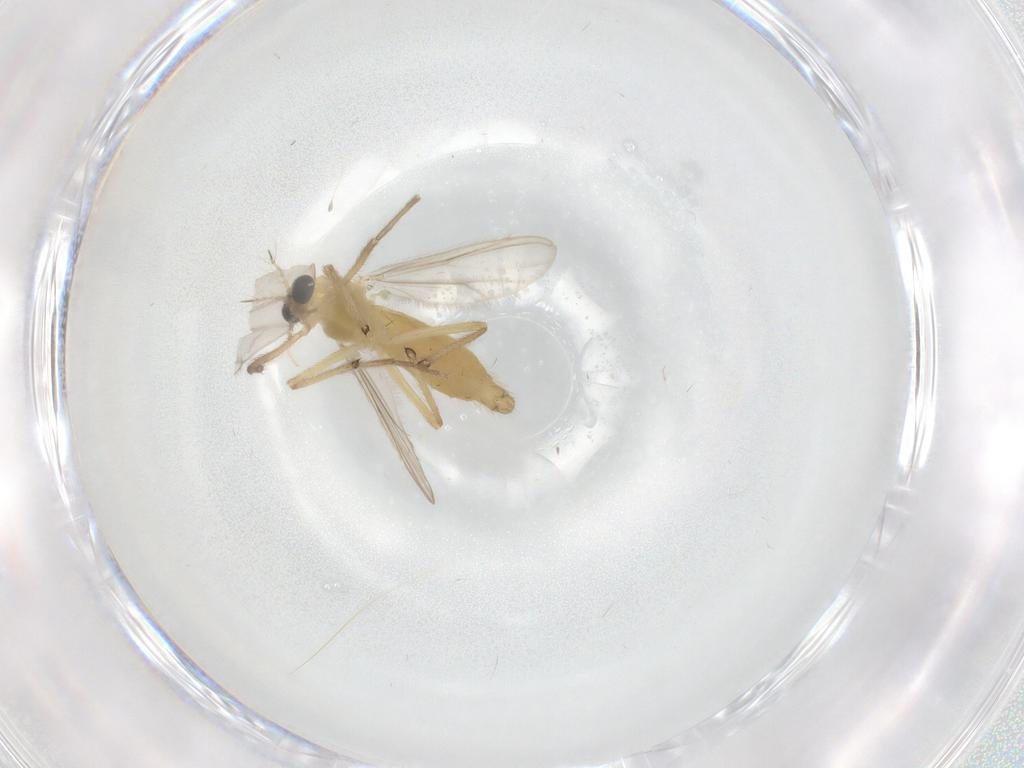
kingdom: Animalia
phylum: Arthropoda
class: Insecta
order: Diptera
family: Chironomidae
